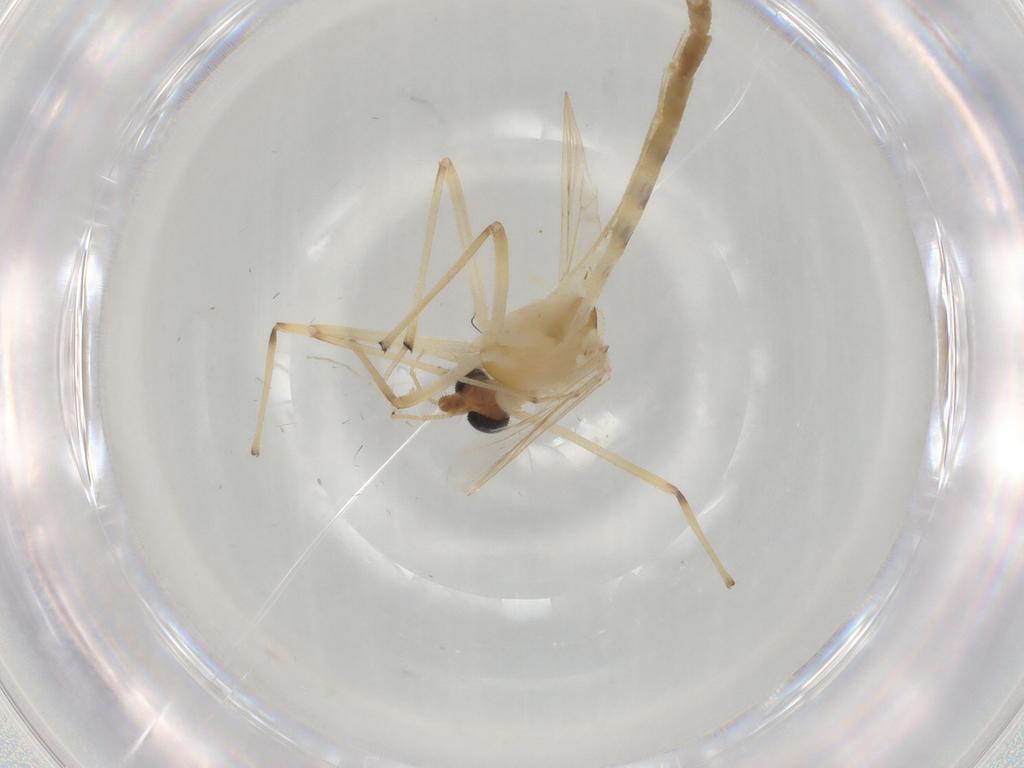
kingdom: Animalia
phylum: Arthropoda
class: Insecta
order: Diptera
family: Chironomidae
